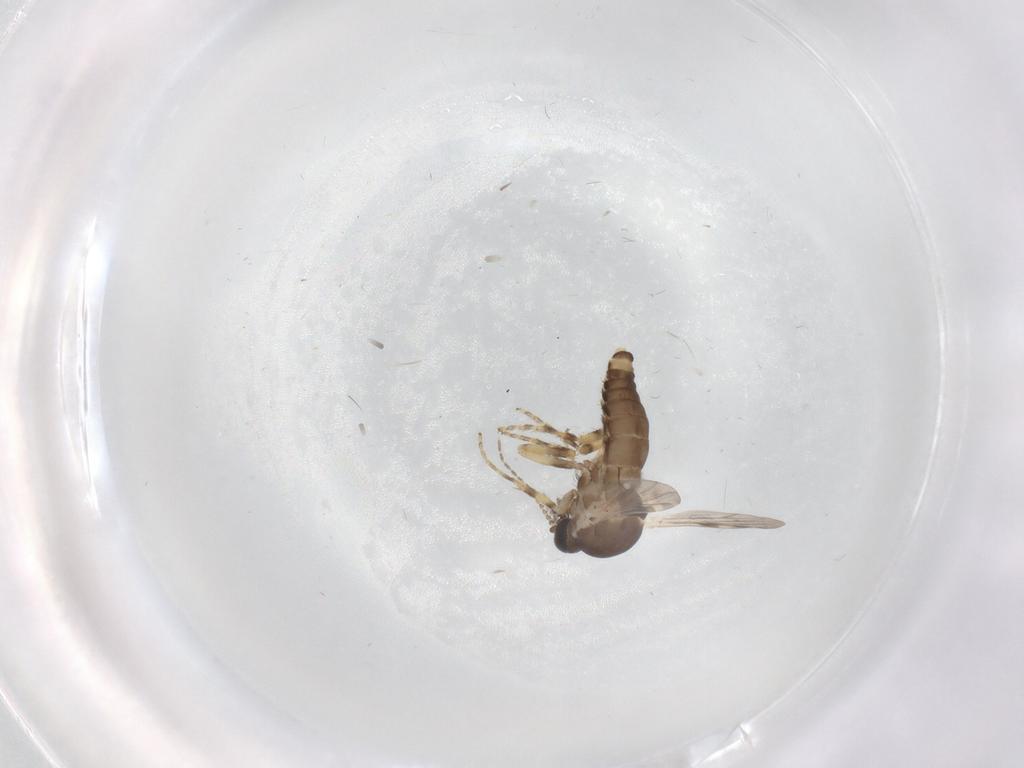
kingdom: Animalia
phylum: Arthropoda
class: Insecta
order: Diptera
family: Ceratopogonidae
